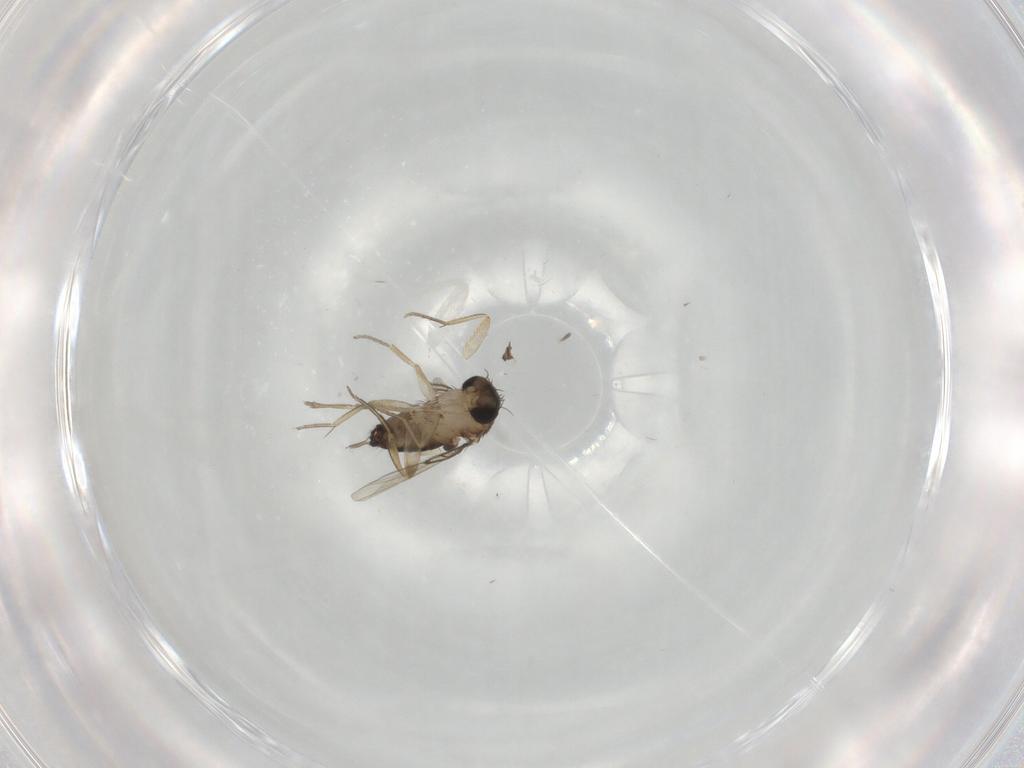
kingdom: Animalia
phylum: Arthropoda
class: Insecta
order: Diptera
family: Phoridae
